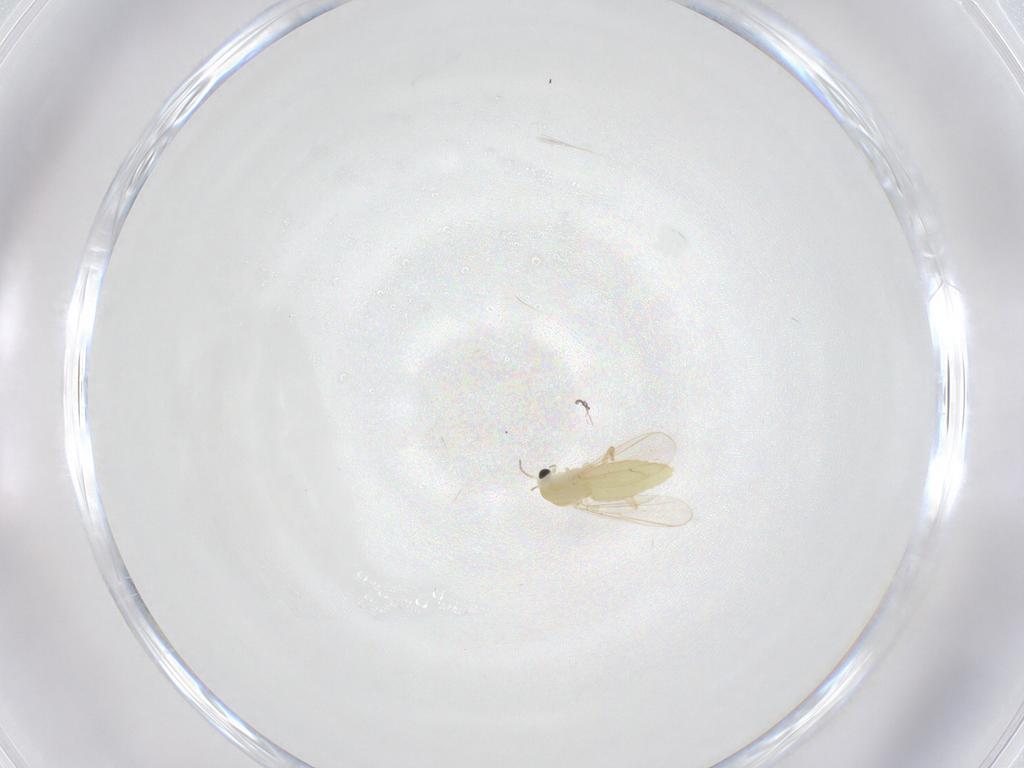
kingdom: Animalia
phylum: Arthropoda
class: Insecta
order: Diptera
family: Chironomidae
